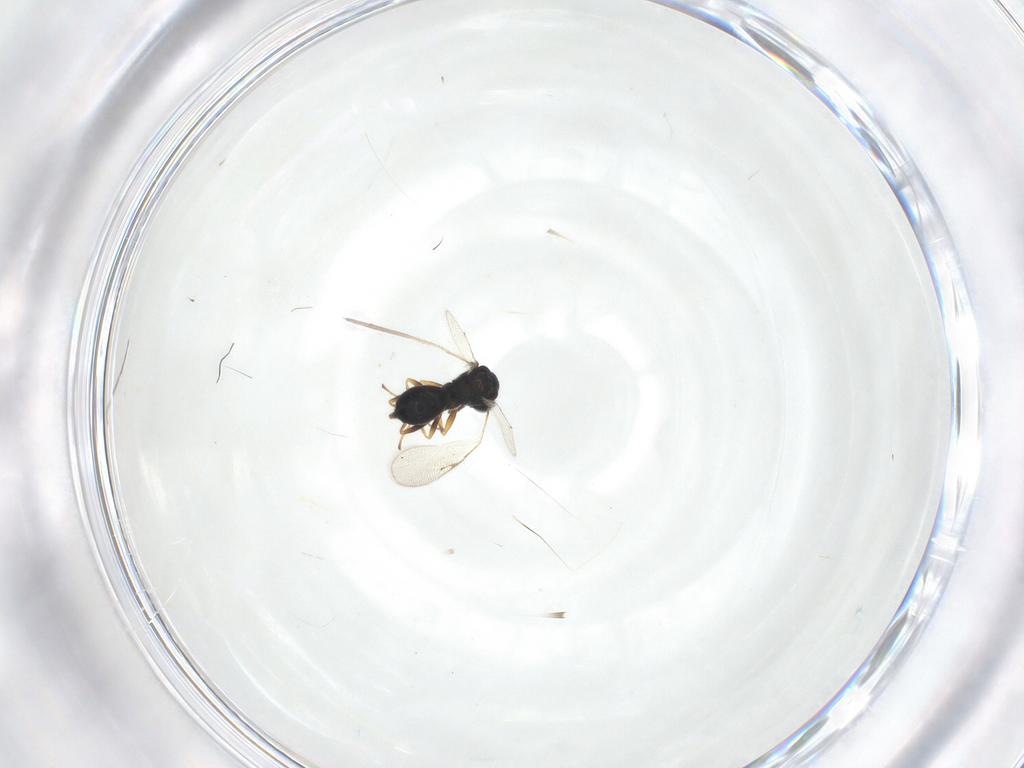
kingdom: Animalia
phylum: Arthropoda
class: Insecta
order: Hymenoptera
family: Chalcidoidea_incertae_sedis
